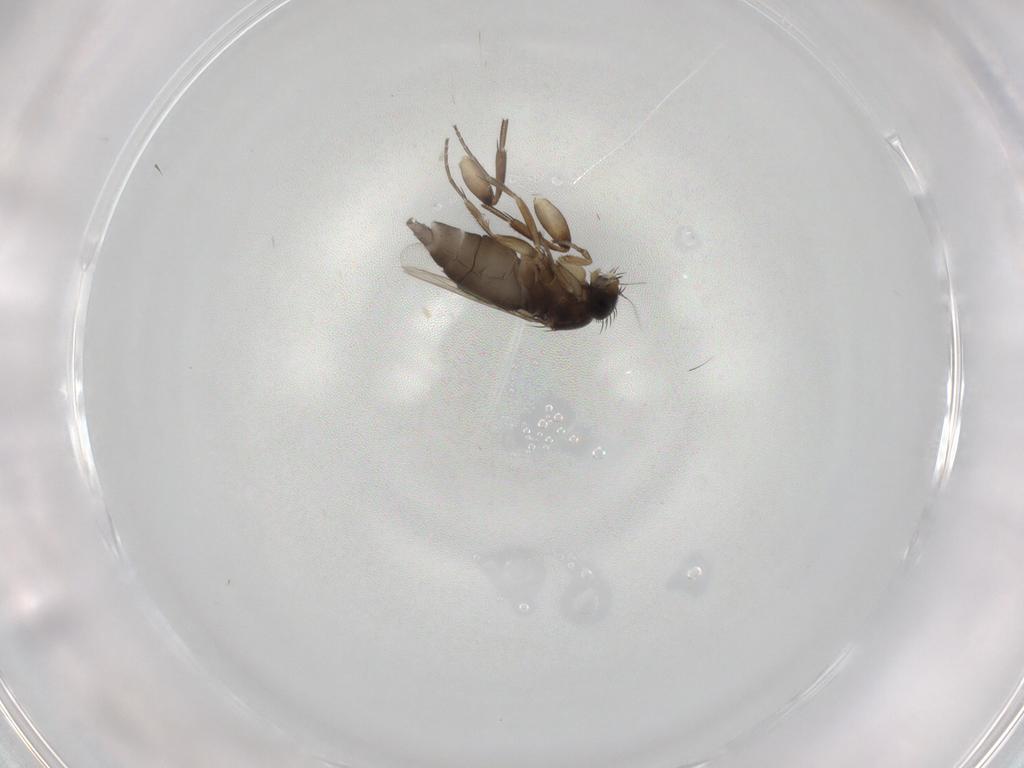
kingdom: Animalia
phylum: Arthropoda
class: Insecta
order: Diptera
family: Phoridae
